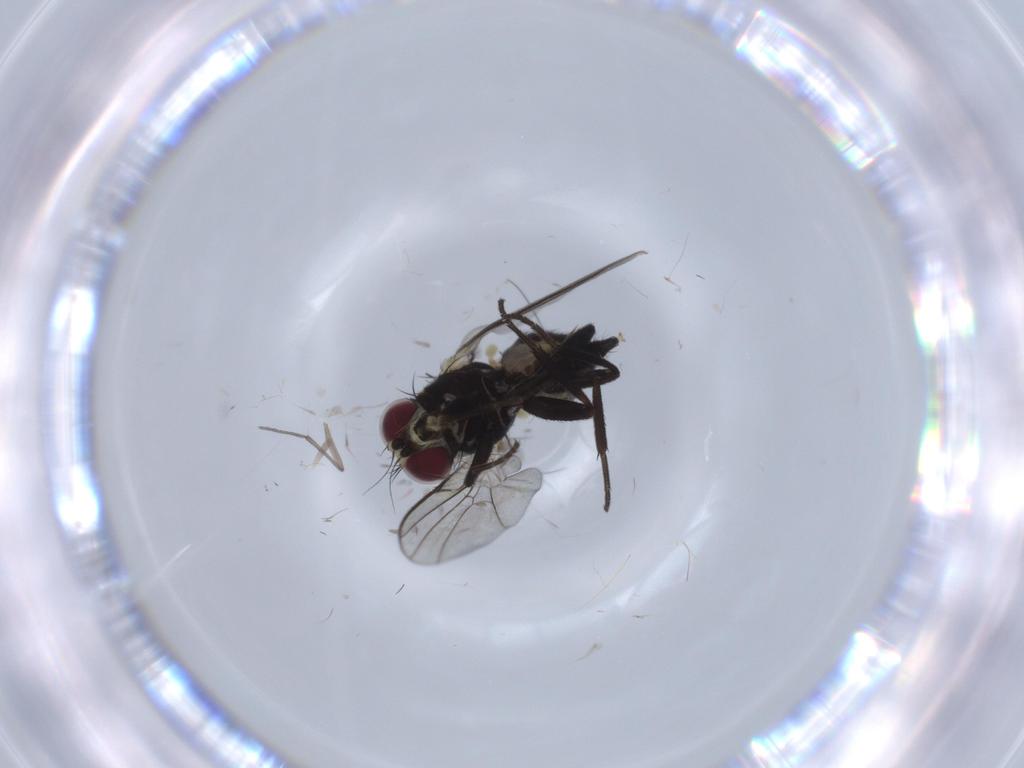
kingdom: Animalia
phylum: Arthropoda
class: Insecta
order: Diptera
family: Agromyzidae
